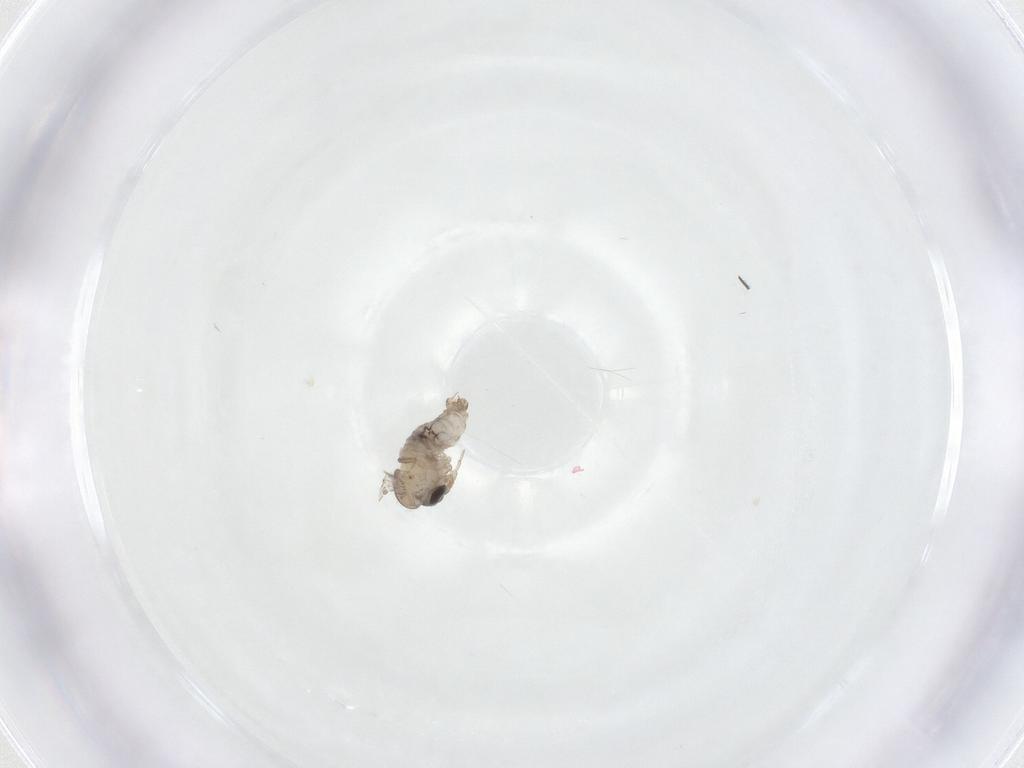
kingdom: Animalia
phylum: Arthropoda
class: Insecta
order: Diptera
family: Psychodidae
